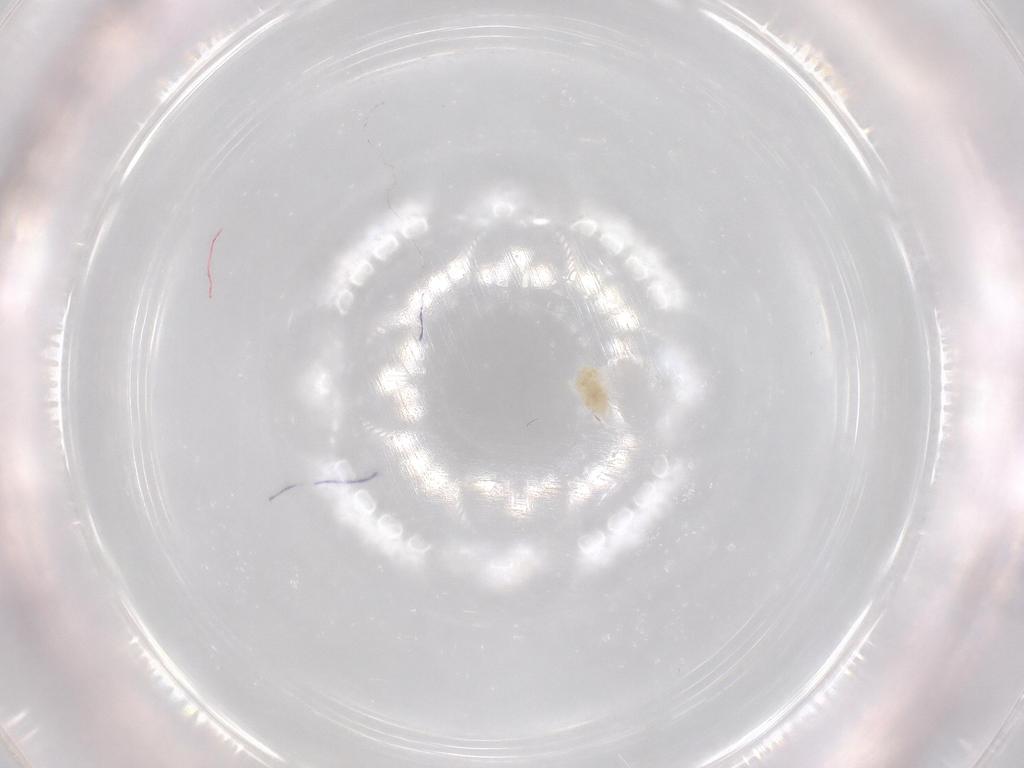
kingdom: Animalia
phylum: Arthropoda
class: Arachnida
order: Trombidiformes
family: Eupodidae
